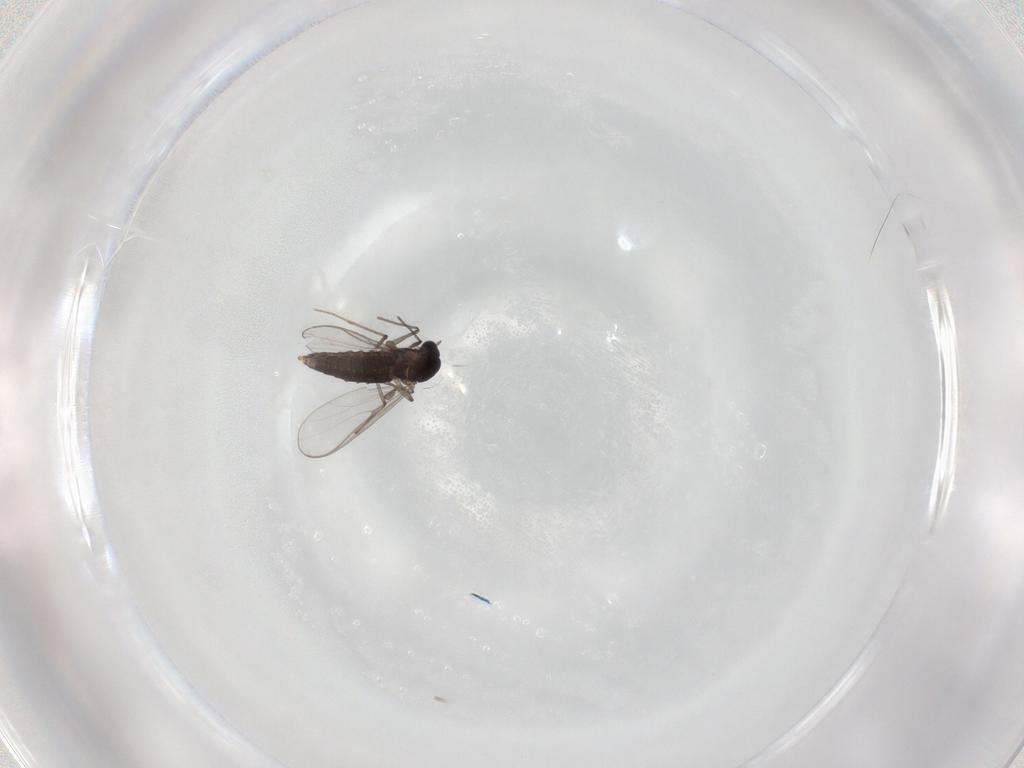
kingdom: Animalia
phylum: Arthropoda
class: Insecta
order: Diptera
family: Chironomidae
